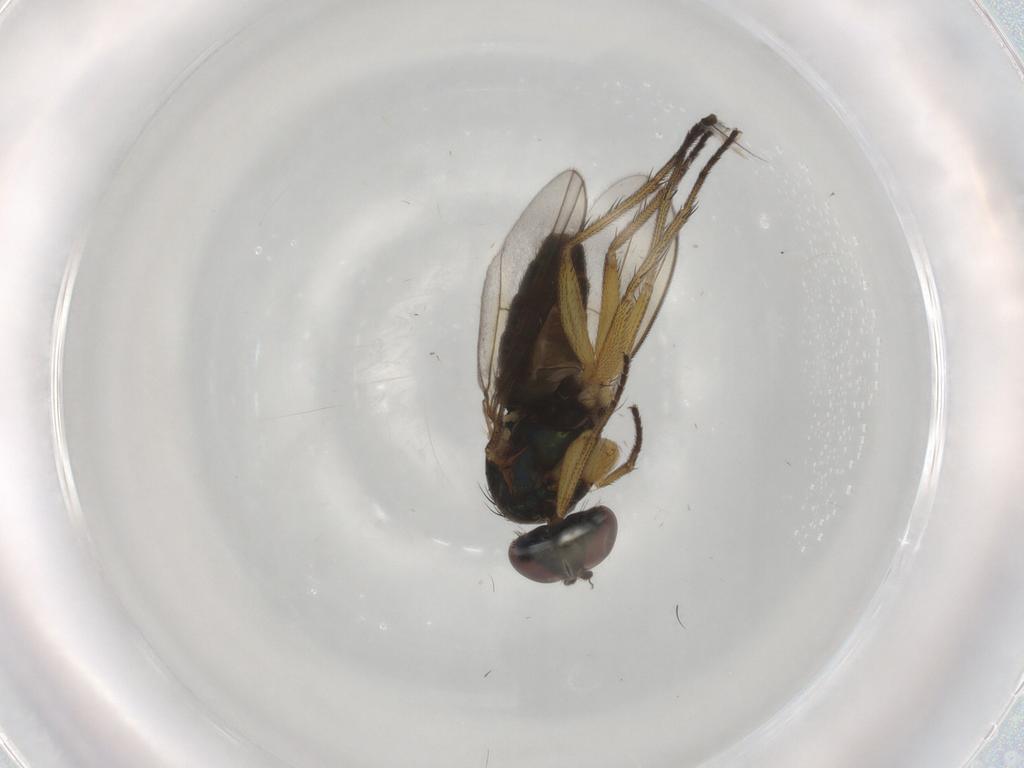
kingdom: Animalia
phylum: Arthropoda
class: Insecta
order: Diptera
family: Dolichopodidae
